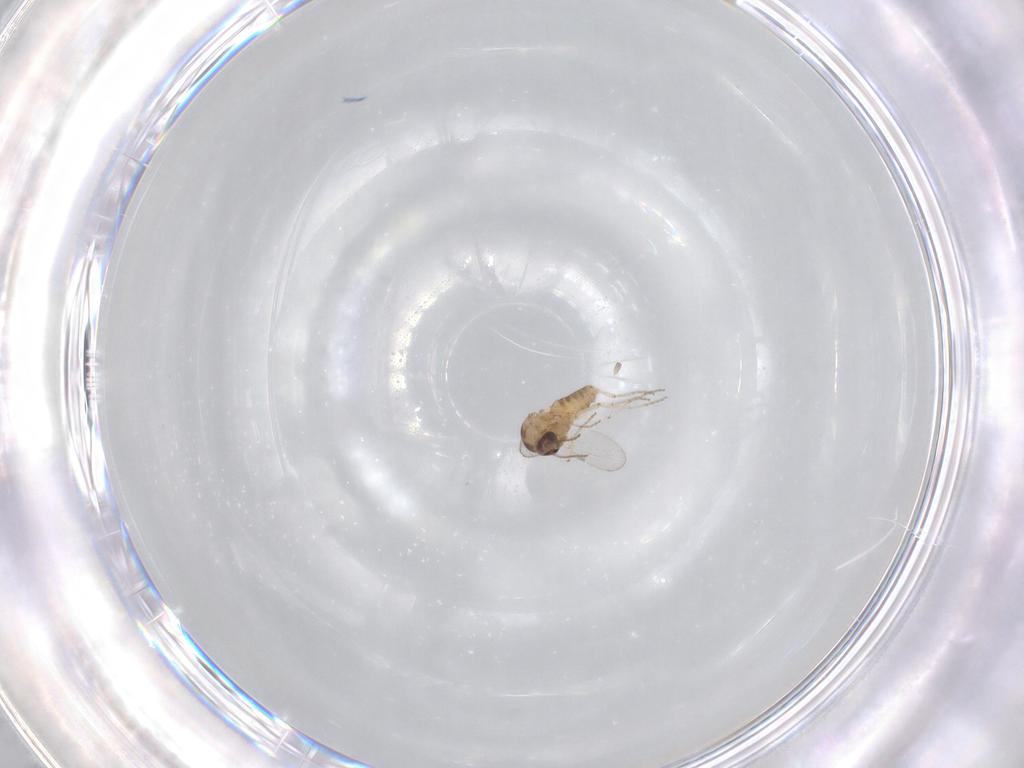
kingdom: Animalia
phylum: Arthropoda
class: Insecta
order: Diptera
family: Ceratopogonidae
